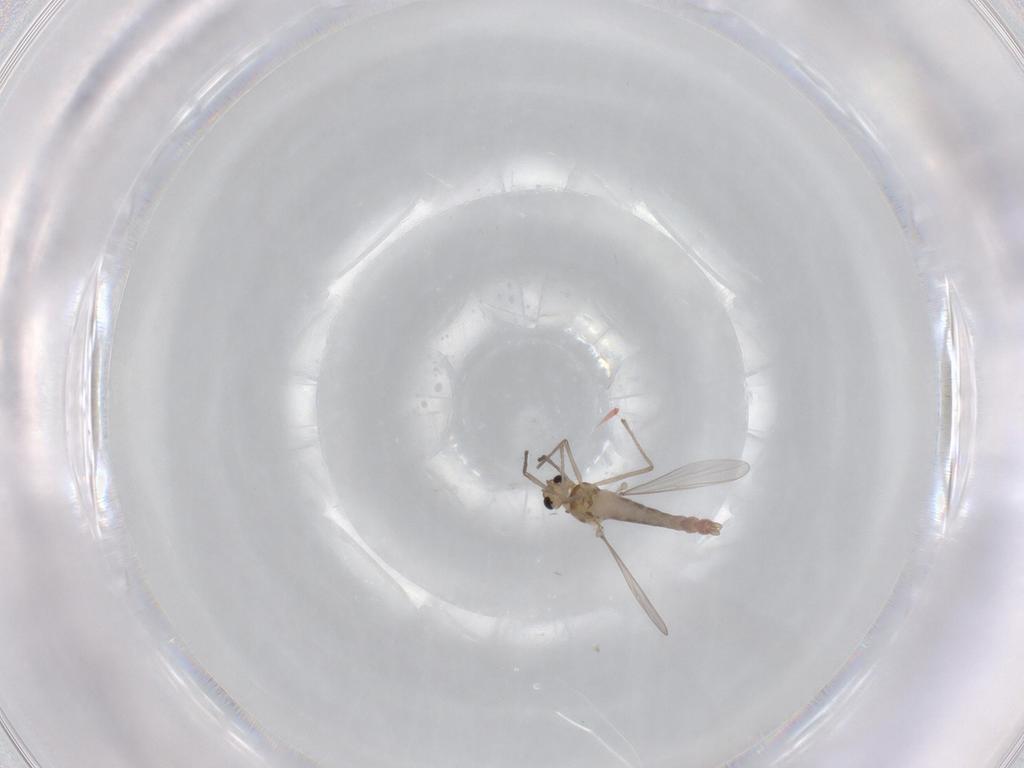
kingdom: Animalia
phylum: Arthropoda
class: Insecta
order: Diptera
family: Chironomidae
